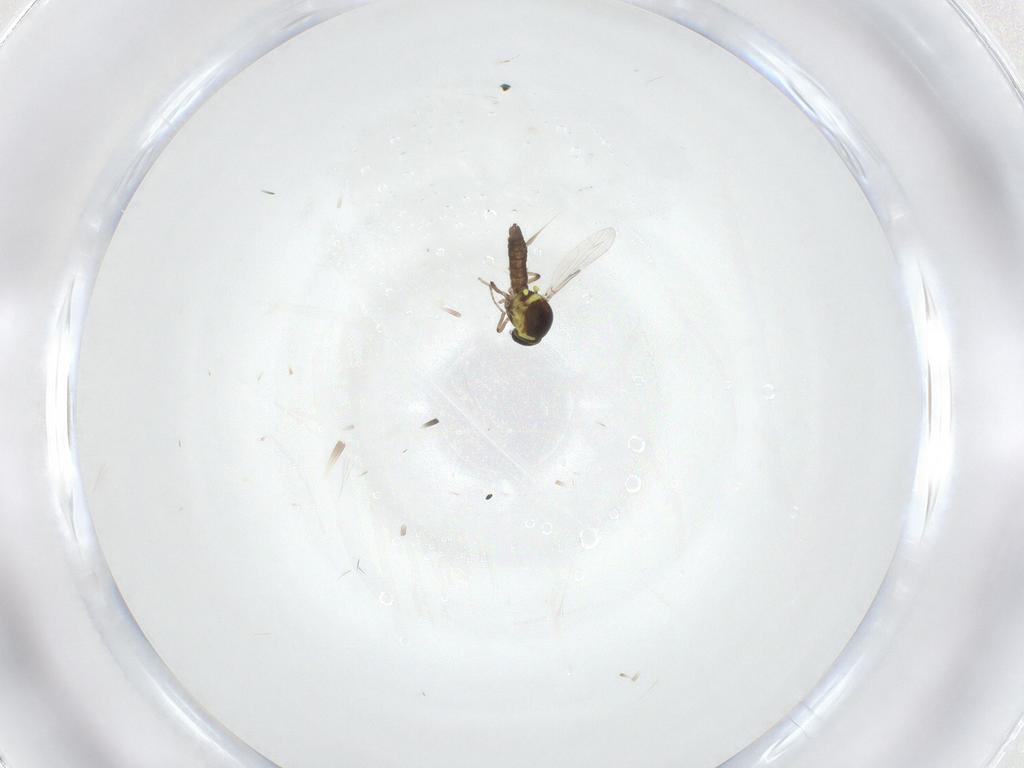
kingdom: Animalia
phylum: Arthropoda
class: Insecta
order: Diptera
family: Ceratopogonidae
